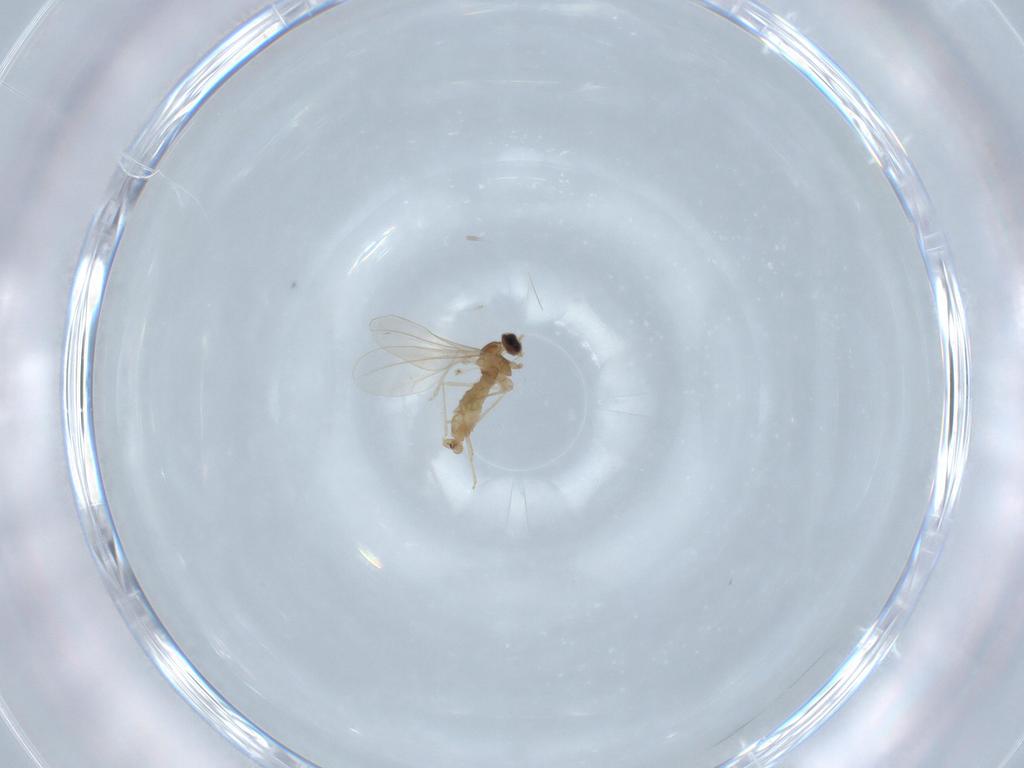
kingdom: Animalia
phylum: Arthropoda
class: Insecta
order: Diptera
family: Cecidomyiidae
